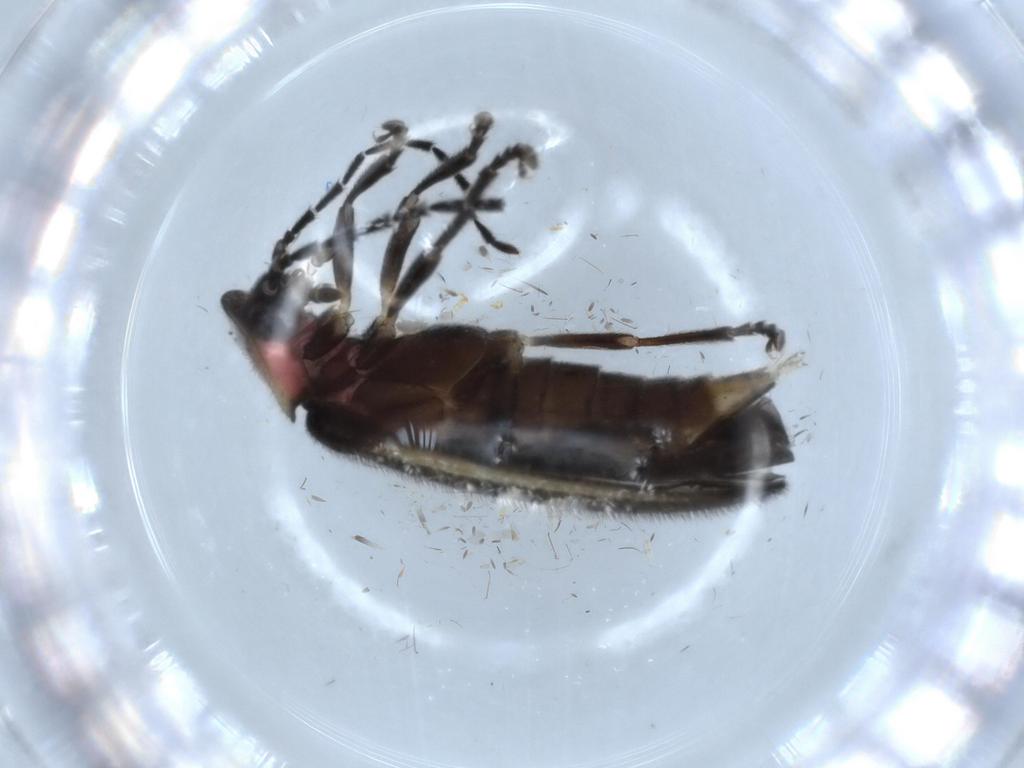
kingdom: Animalia
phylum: Arthropoda
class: Insecta
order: Coleoptera
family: Lampyridae
